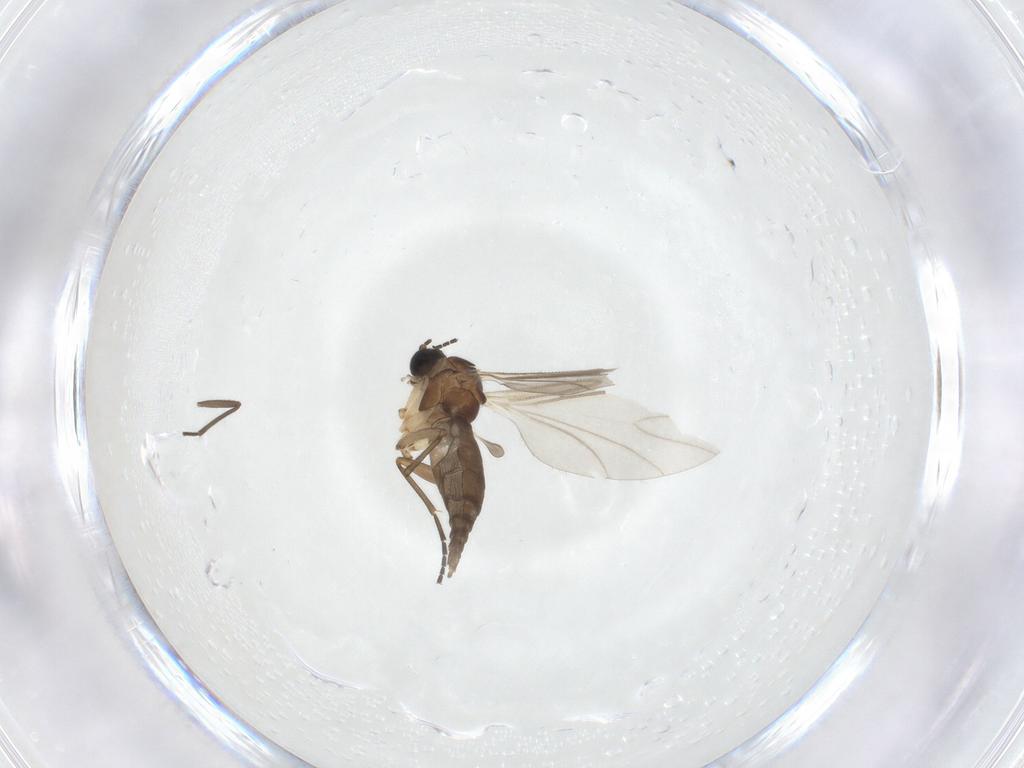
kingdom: Animalia
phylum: Arthropoda
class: Insecta
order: Diptera
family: Sciaridae
